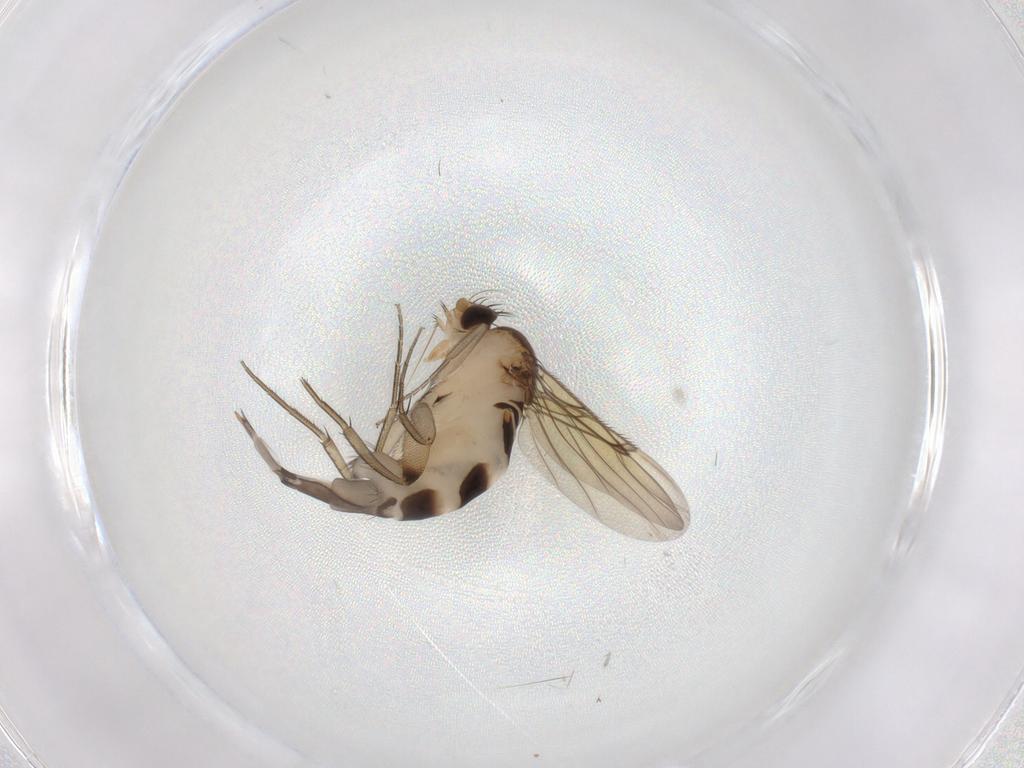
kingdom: Animalia
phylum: Arthropoda
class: Insecta
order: Diptera
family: Phoridae
